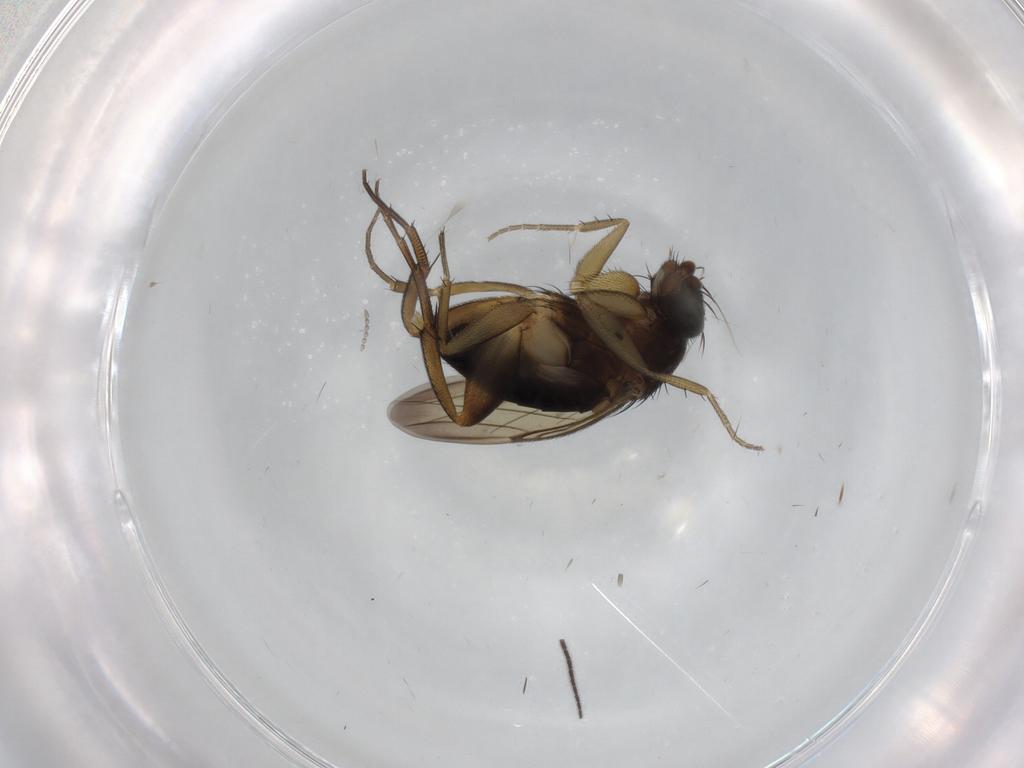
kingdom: Animalia
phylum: Arthropoda
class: Insecta
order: Diptera
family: Phoridae
